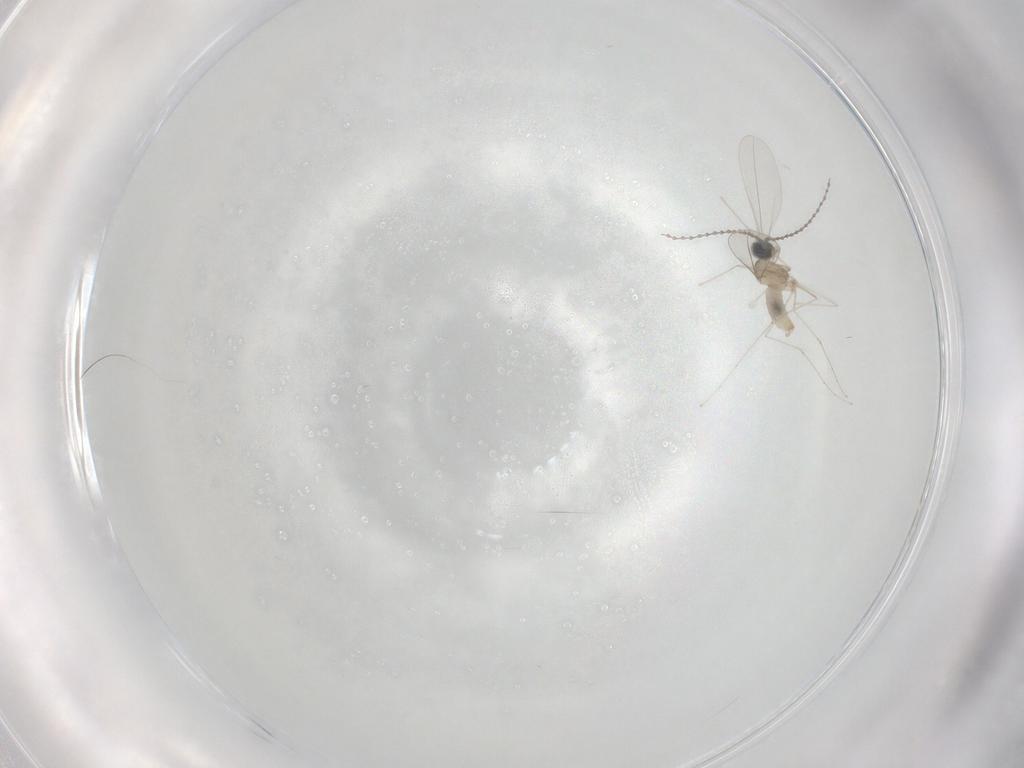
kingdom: Animalia
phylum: Arthropoda
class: Insecta
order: Diptera
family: Cecidomyiidae
